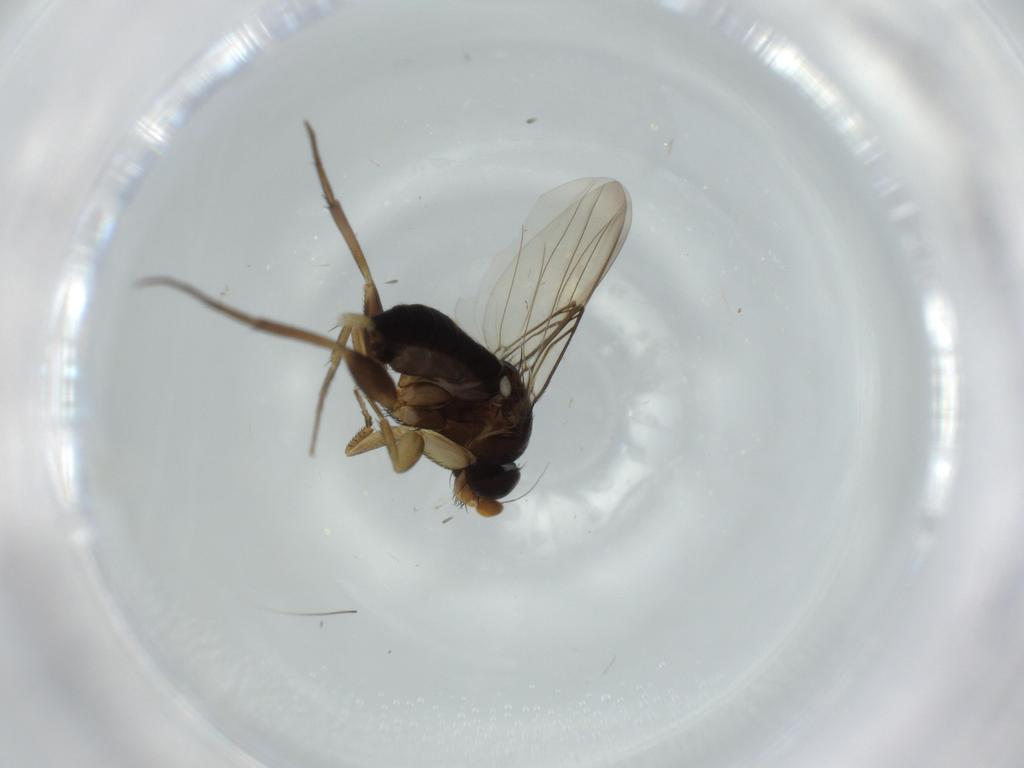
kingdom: Animalia
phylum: Arthropoda
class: Insecta
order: Diptera
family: Phoridae
